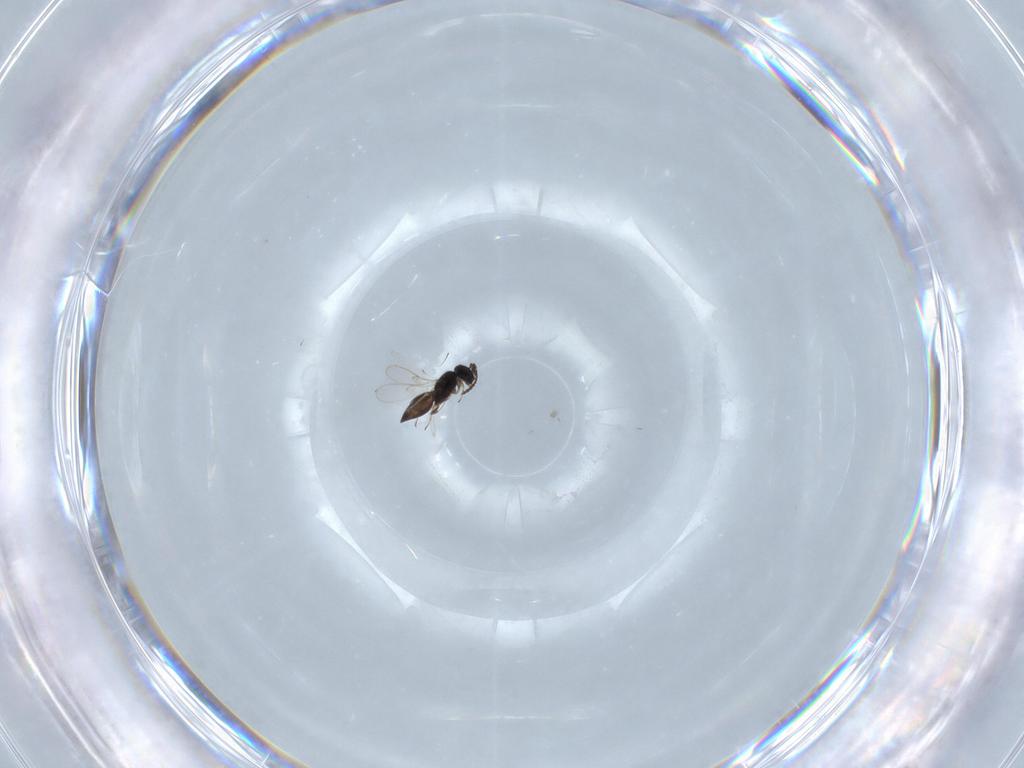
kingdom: Animalia
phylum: Arthropoda
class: Insecta
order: Hymenoptera
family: Scelionidae
